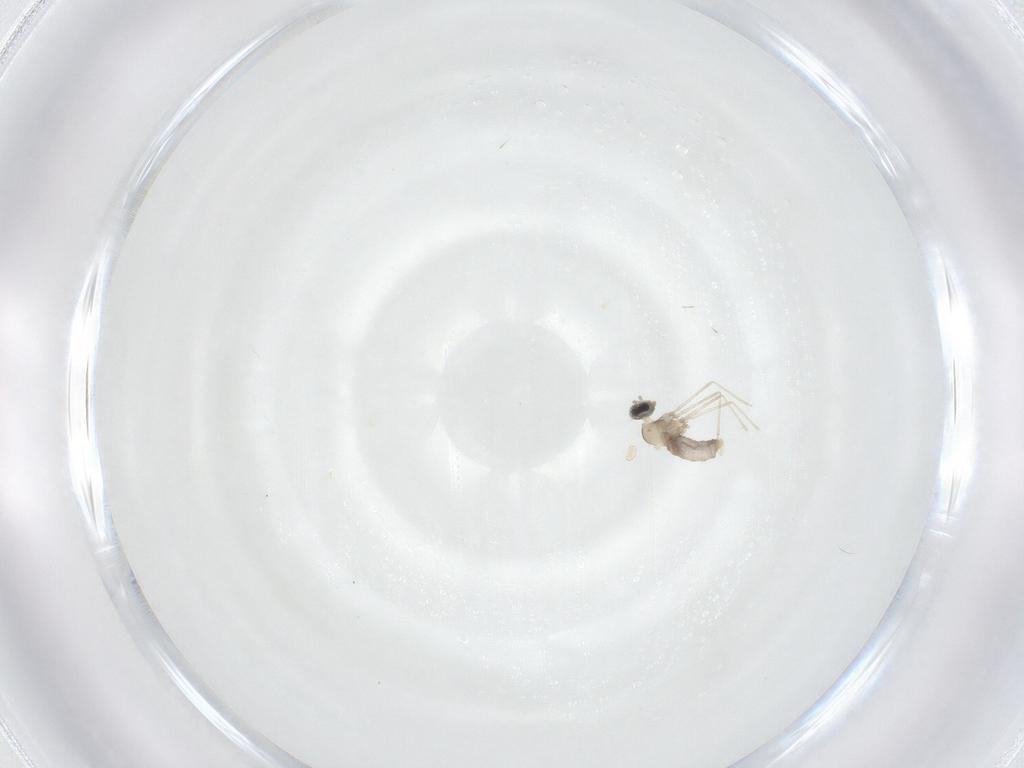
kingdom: Animalia
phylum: Arthropoda
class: Insecta
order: Diptera
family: Cecidomyiidae
